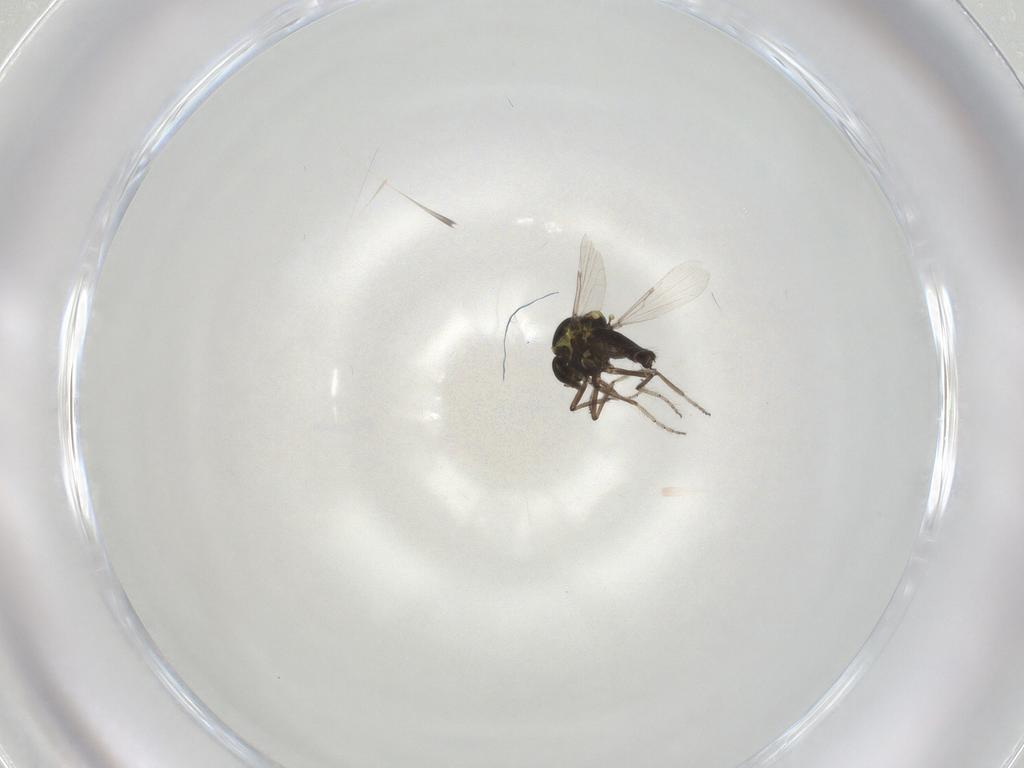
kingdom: Animalia
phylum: Arthropoda
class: Insecta
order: Diptera
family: Ceratopogonidae
